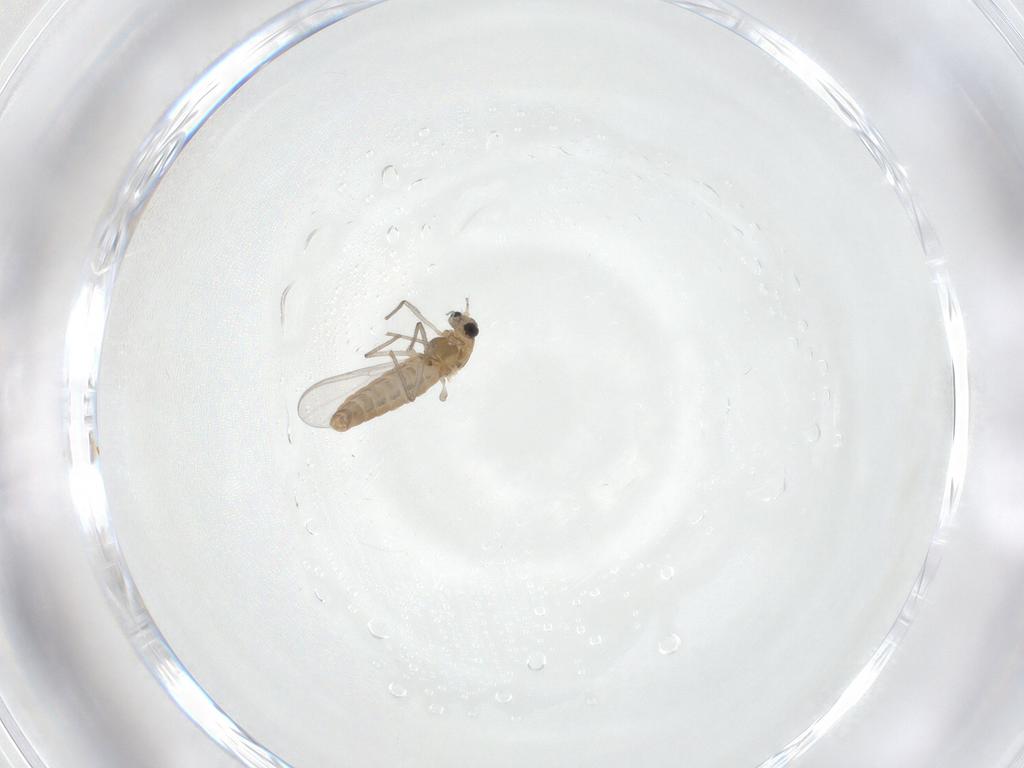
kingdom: Animalia
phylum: Arthropoda
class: Insecta
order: Diptera
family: Chironomidae
